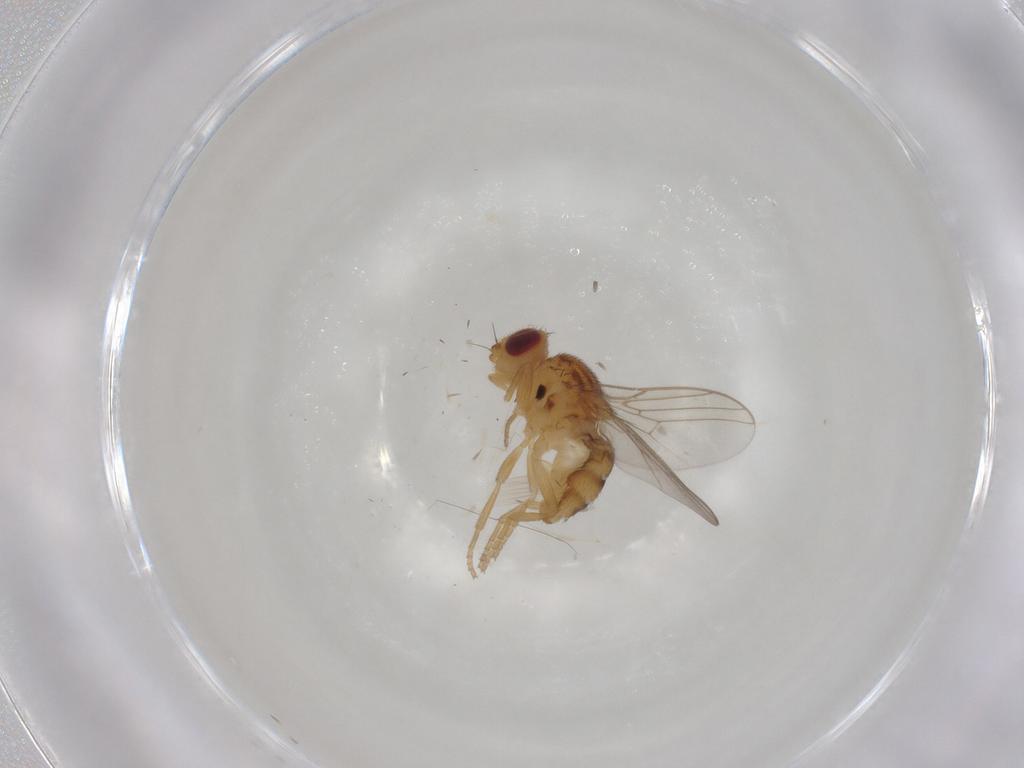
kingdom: Animalia
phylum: Arthropoda
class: Insecta
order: Diptera
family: Chloropidae
